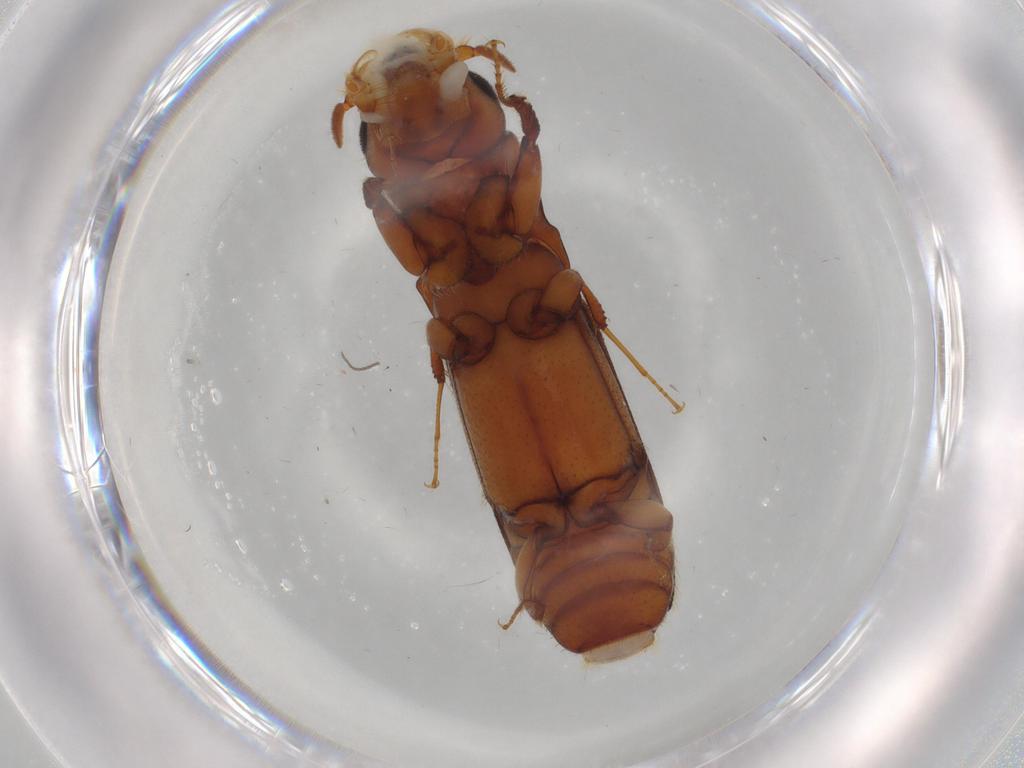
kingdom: Animalia
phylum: Arthropoda
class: Insecta
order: Coleoptera
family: Curculionidae
